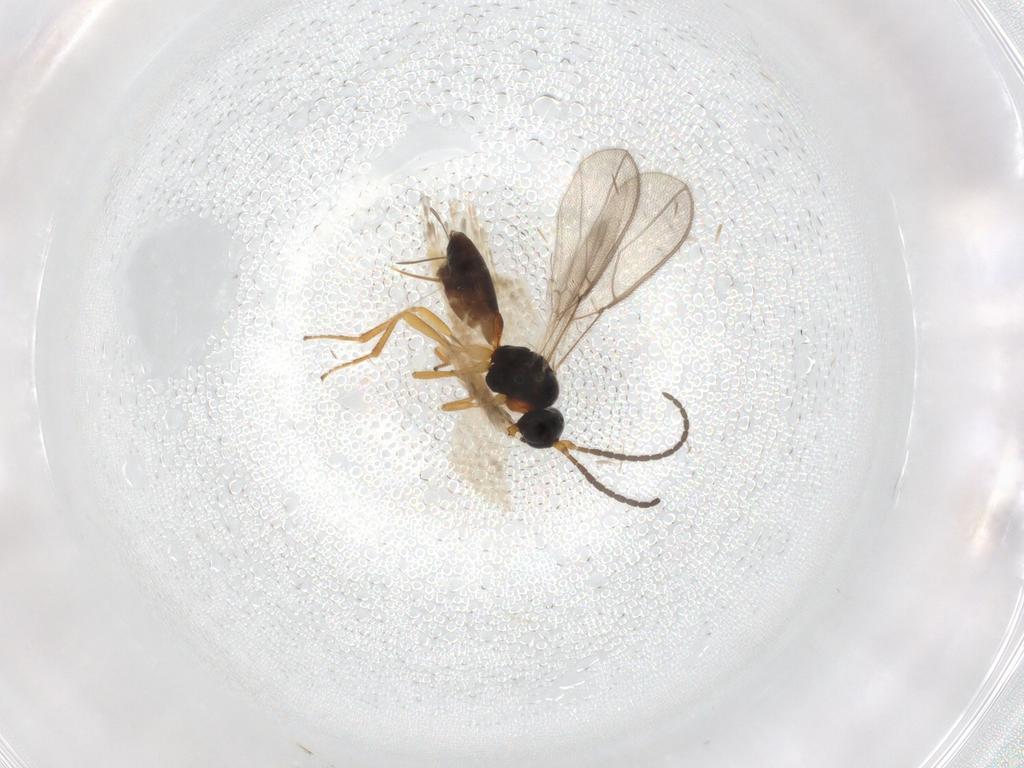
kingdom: Animalia
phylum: Arthropoda
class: Insecta
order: Hymenoptera
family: Braconidae
